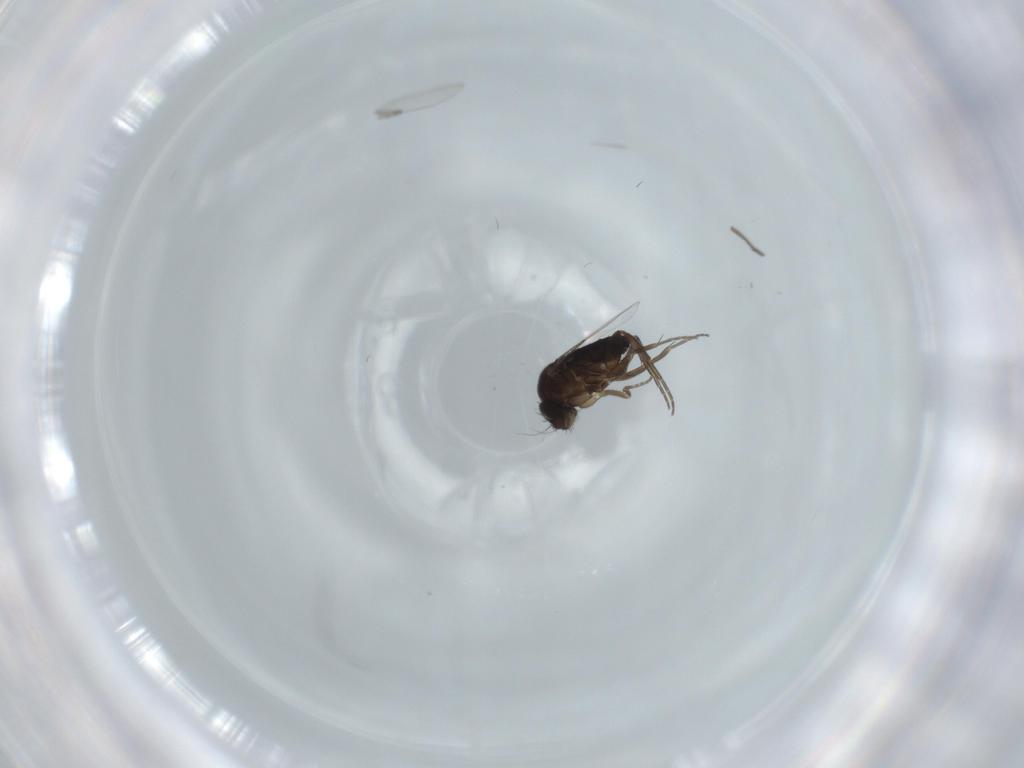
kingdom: Animalia
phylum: Arthropoda
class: Insecta
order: Diptera
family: Phoridae
